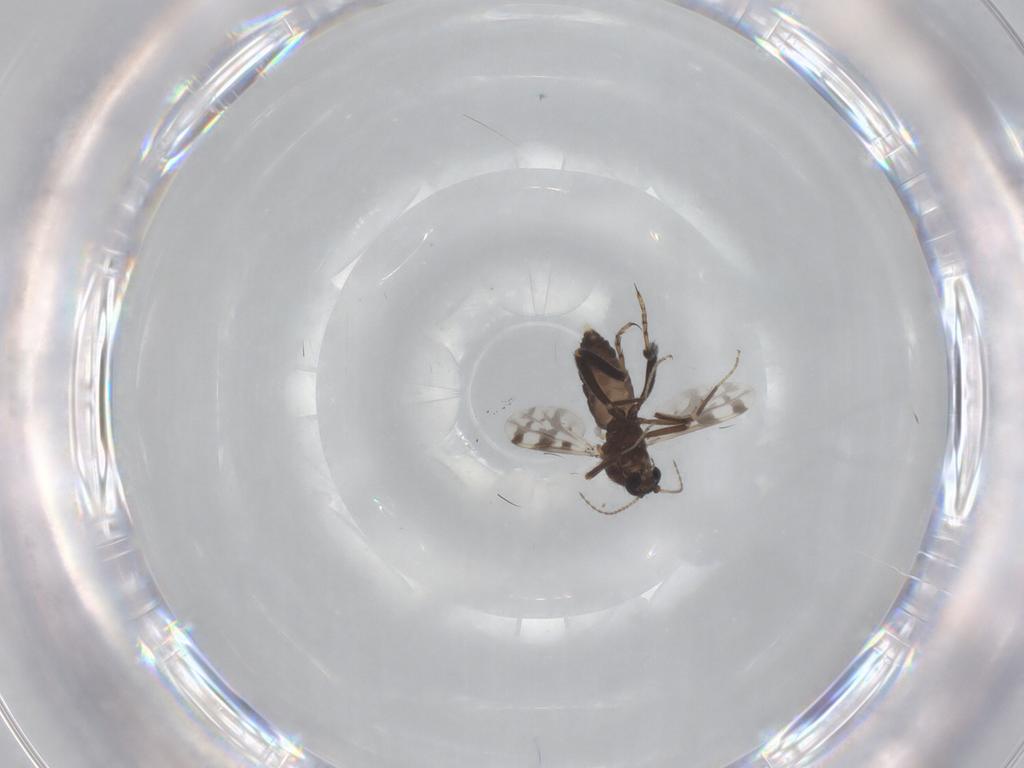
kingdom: Animalia
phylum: Arthropoda
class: Insecta
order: Diptera
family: Ceratopogonidae
